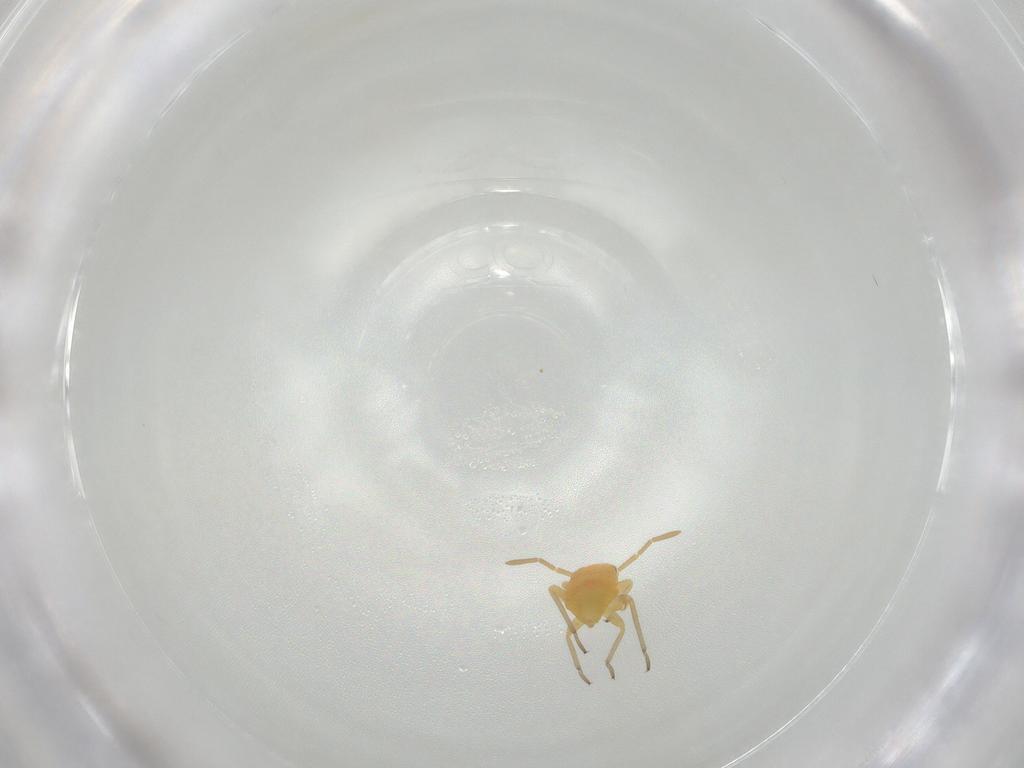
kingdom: Animalia
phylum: Arthropoda
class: Insecta
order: Hemiptera
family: Miridae
